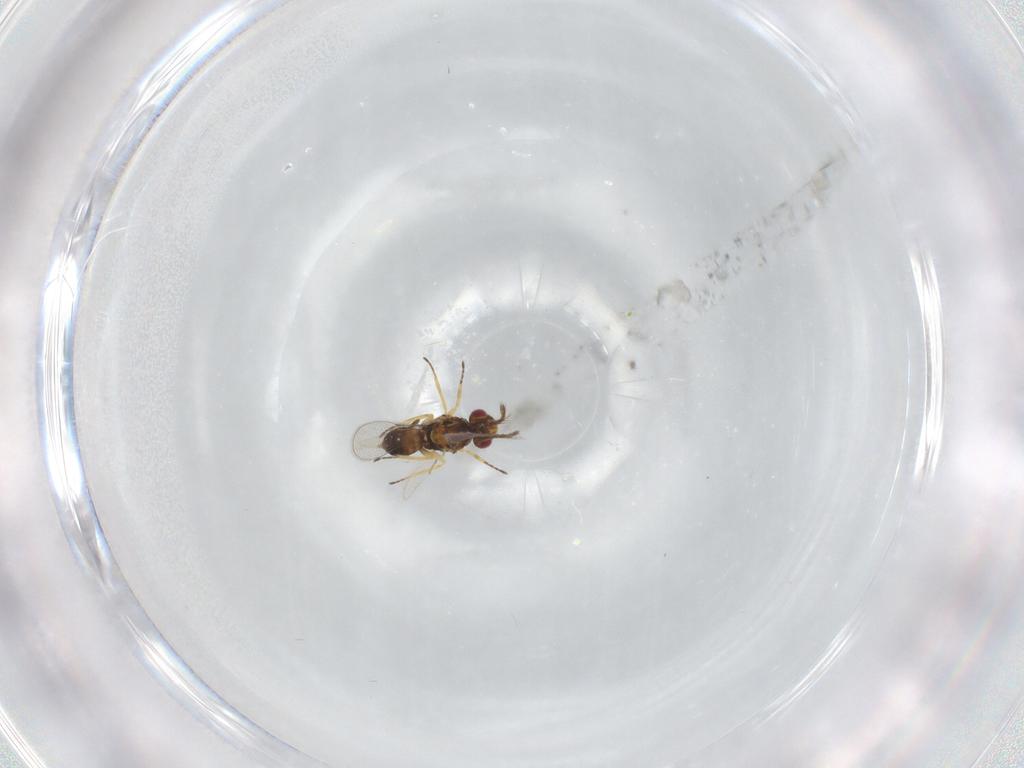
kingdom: Animalia
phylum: Arthropoda
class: Insecta
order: Hymenoptera
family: Eulophidae
